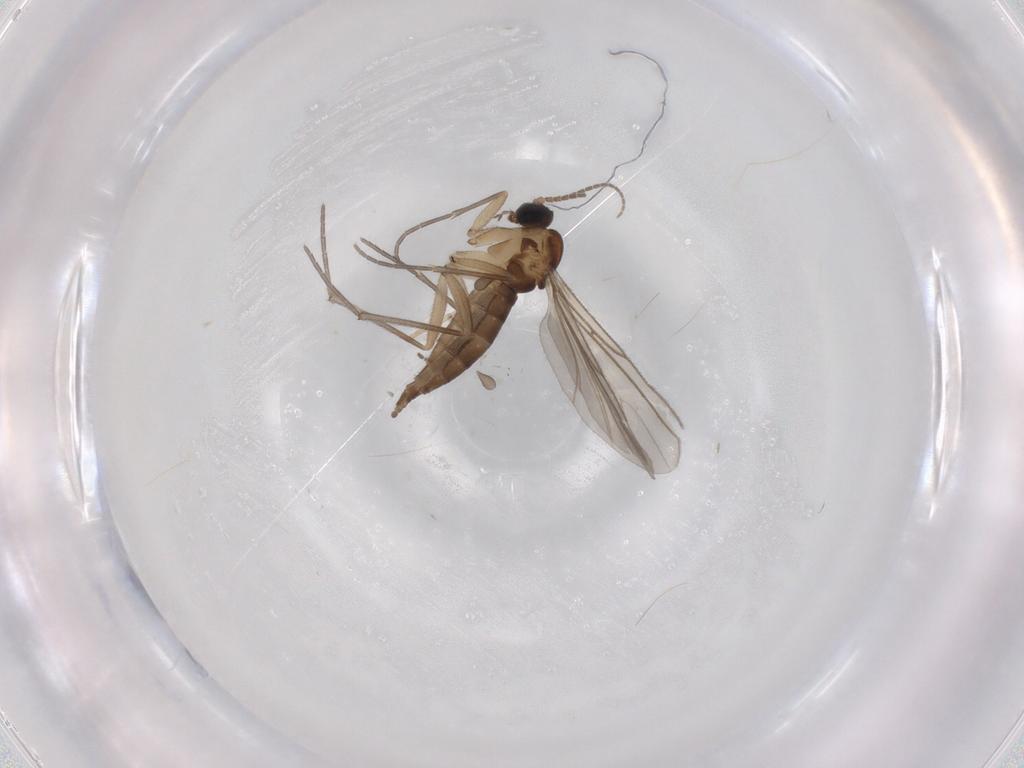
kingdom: Animalia
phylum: Arthropoda
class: Insecta
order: Diptera
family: Sciaridae
